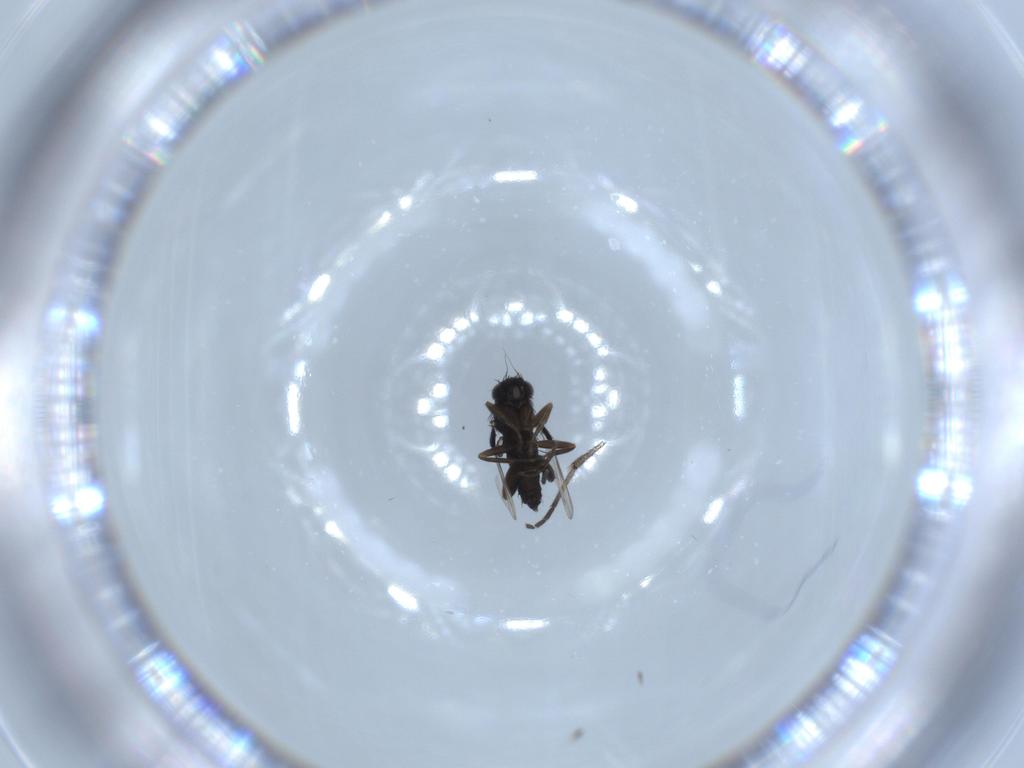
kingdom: Animalia
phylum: Arthropoda
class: Insecta
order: Diptera
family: Phoridae
